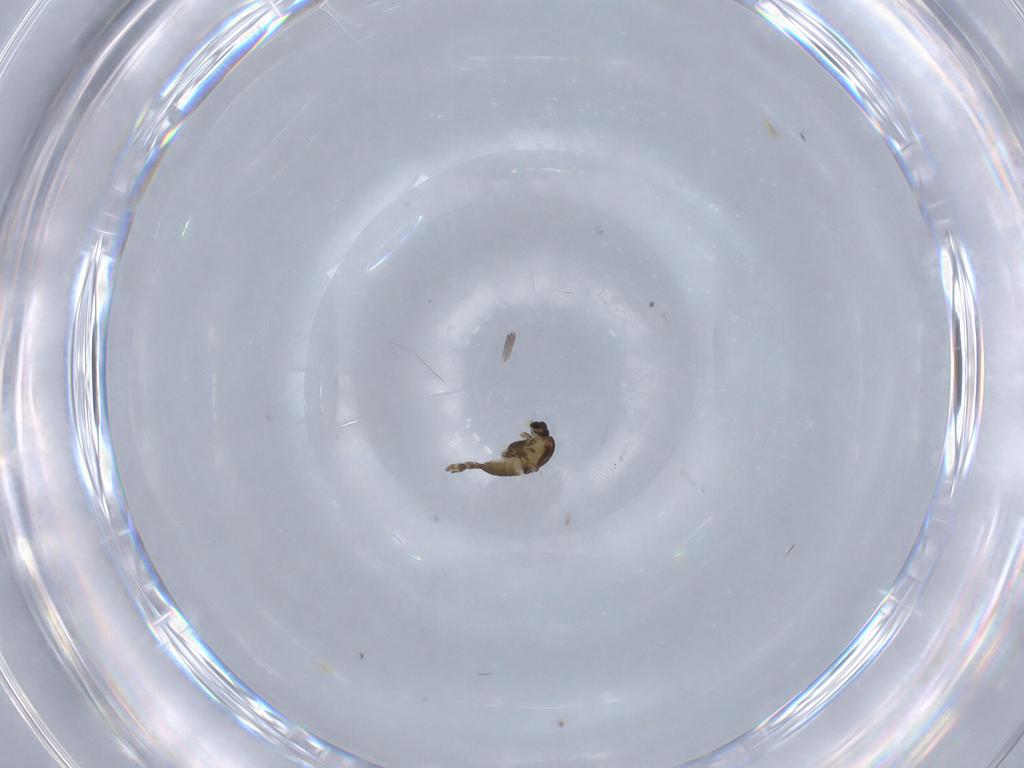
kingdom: Animalia
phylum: Arthropoda
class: Insecta
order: Diptera
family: Chironomidae
